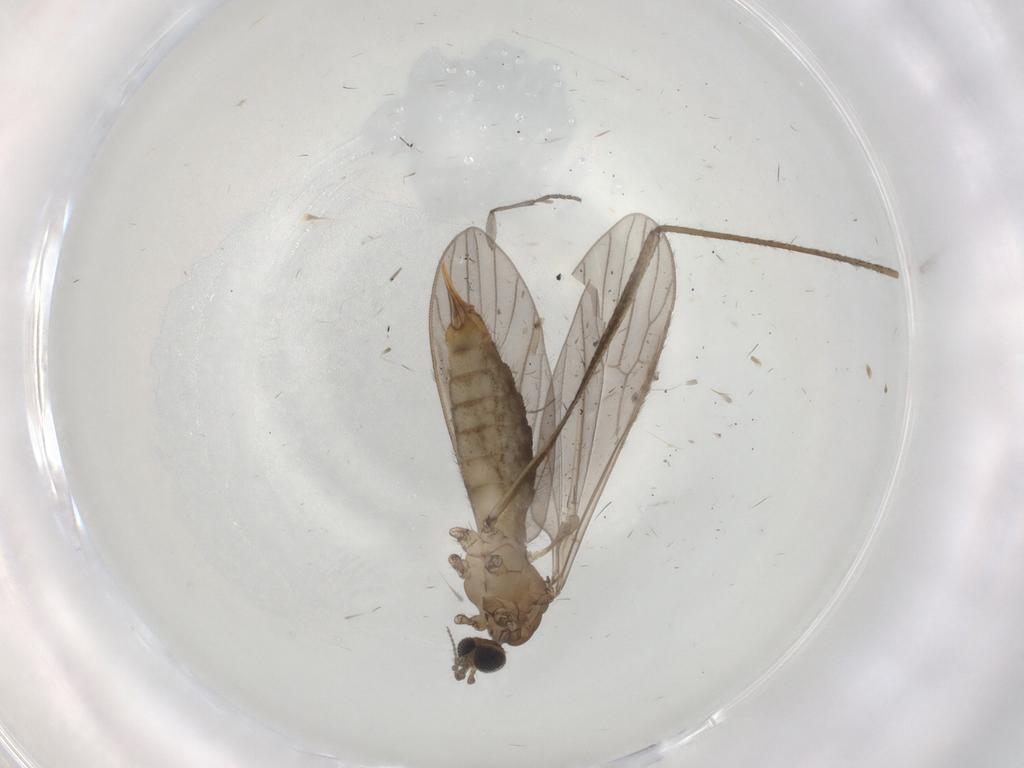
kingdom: Animalia
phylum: Arthropoda
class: Insecta
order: Diptera
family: Limoniidae
